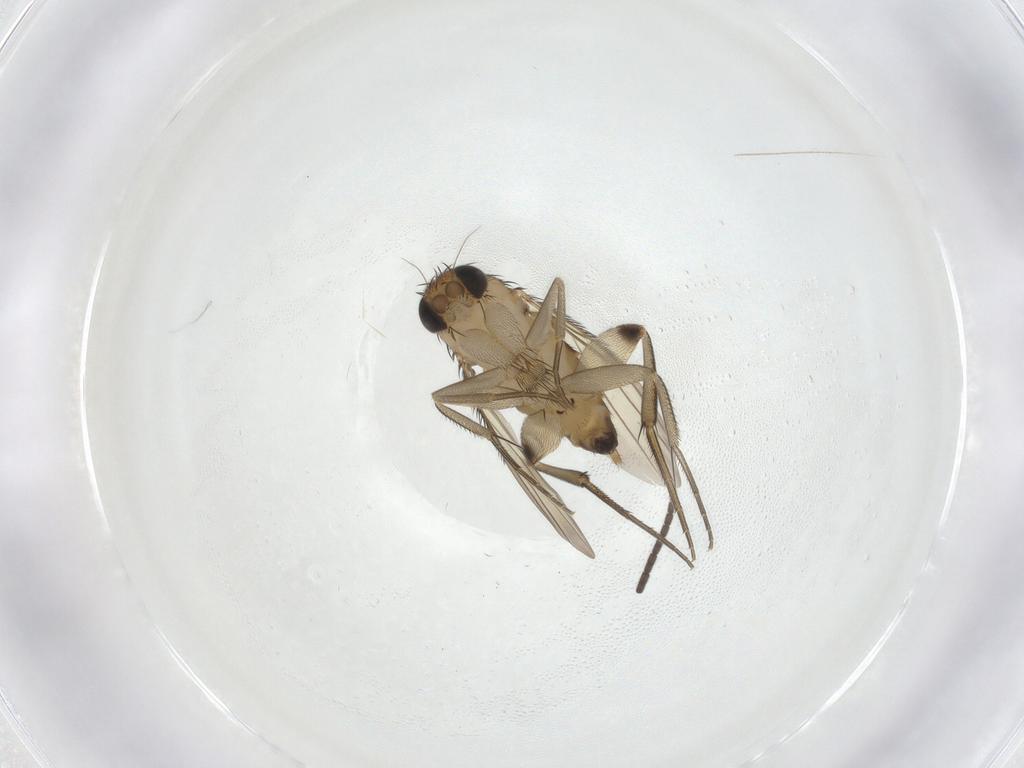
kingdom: Animalia
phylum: Arthropoda
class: Insecta
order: Diptera
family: Phoridae
